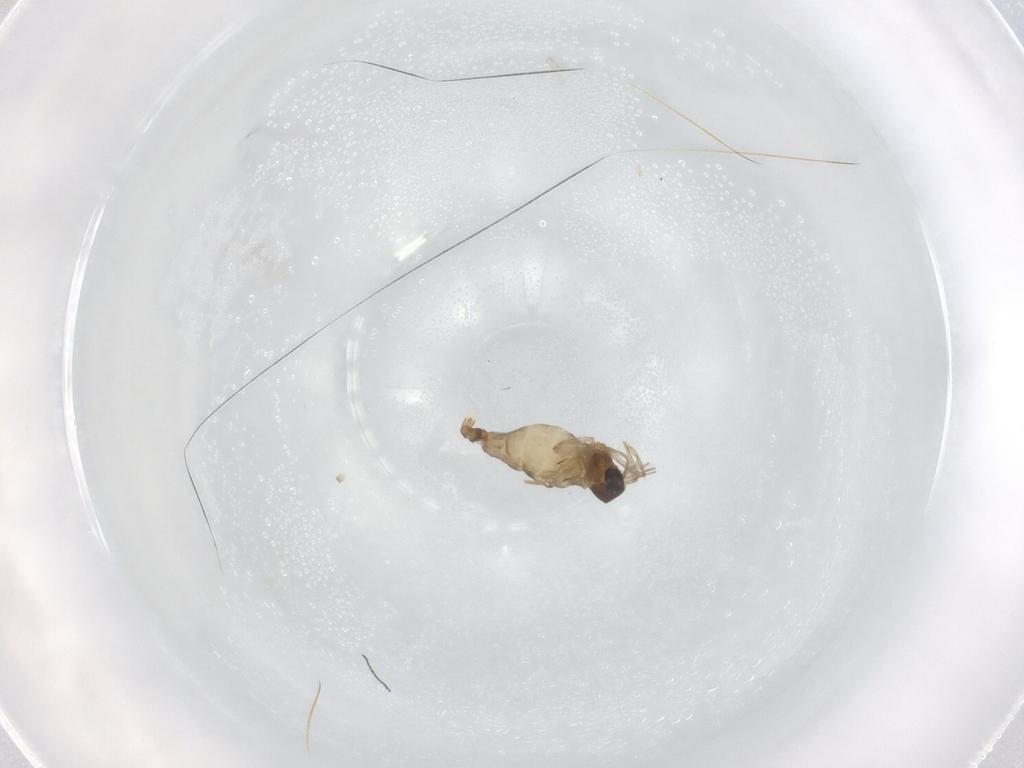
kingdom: Animalia
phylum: Arthropoda
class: Insecta
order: Diptera
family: Cecidomyiidae
